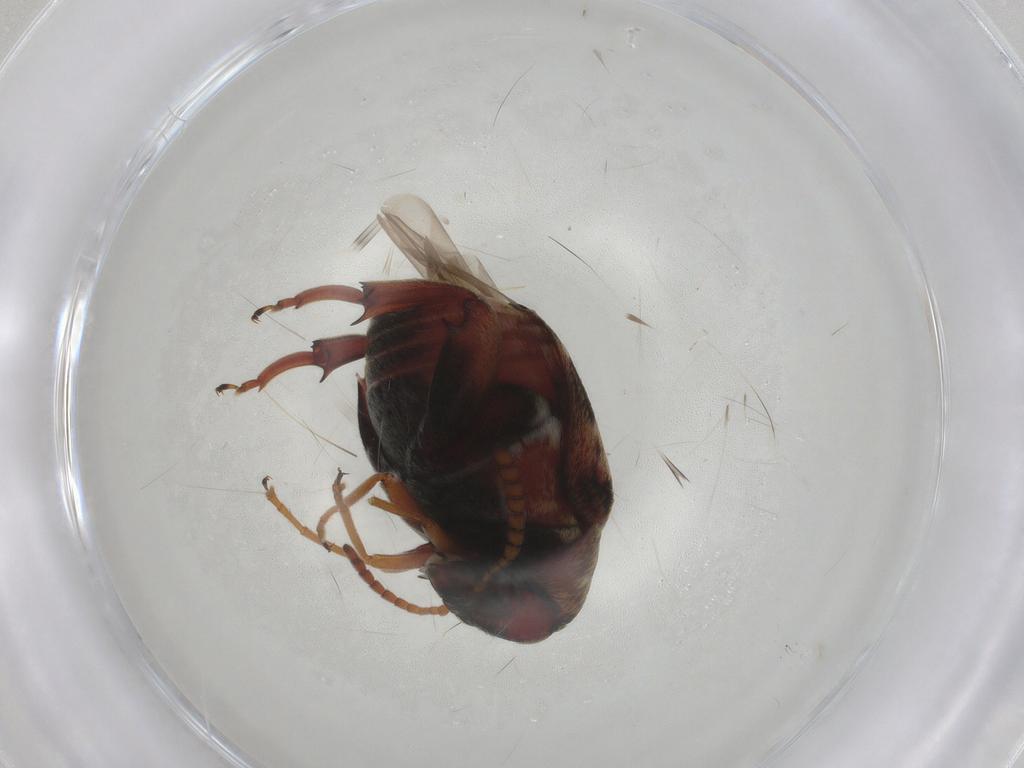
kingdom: Animalia
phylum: Arthropoda
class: Insecta
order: Coleoptera
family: Chrysomelidae
